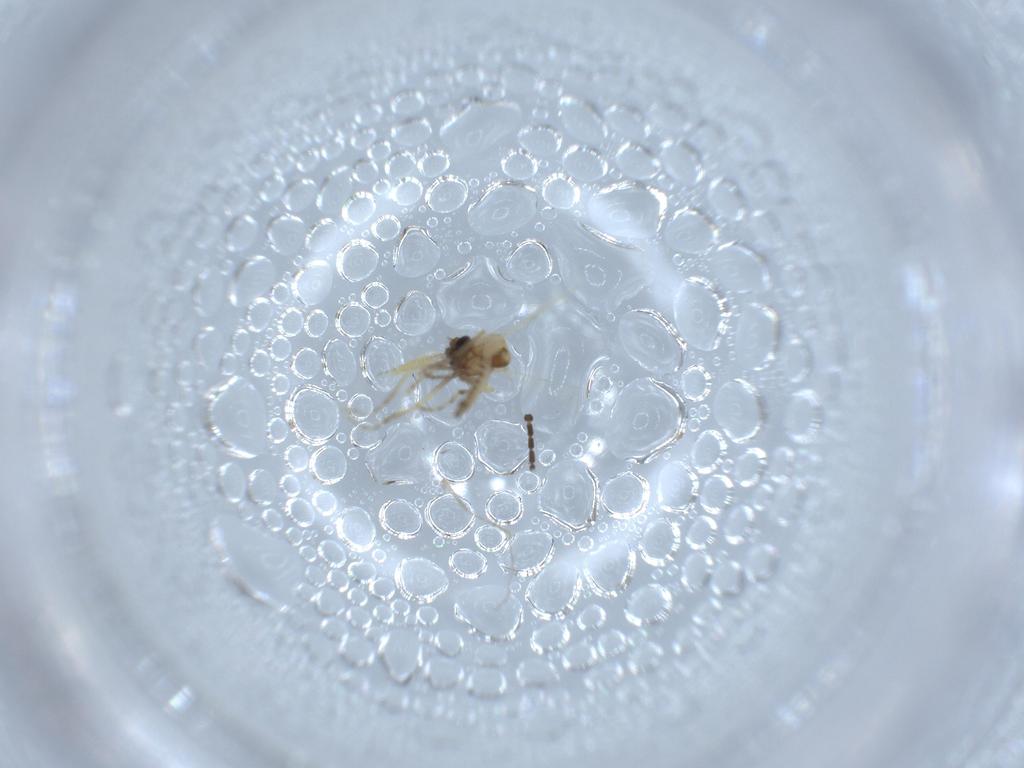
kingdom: Animalia
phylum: Arthropoda
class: Insecta
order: Diptera
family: Ceratopogonidae
